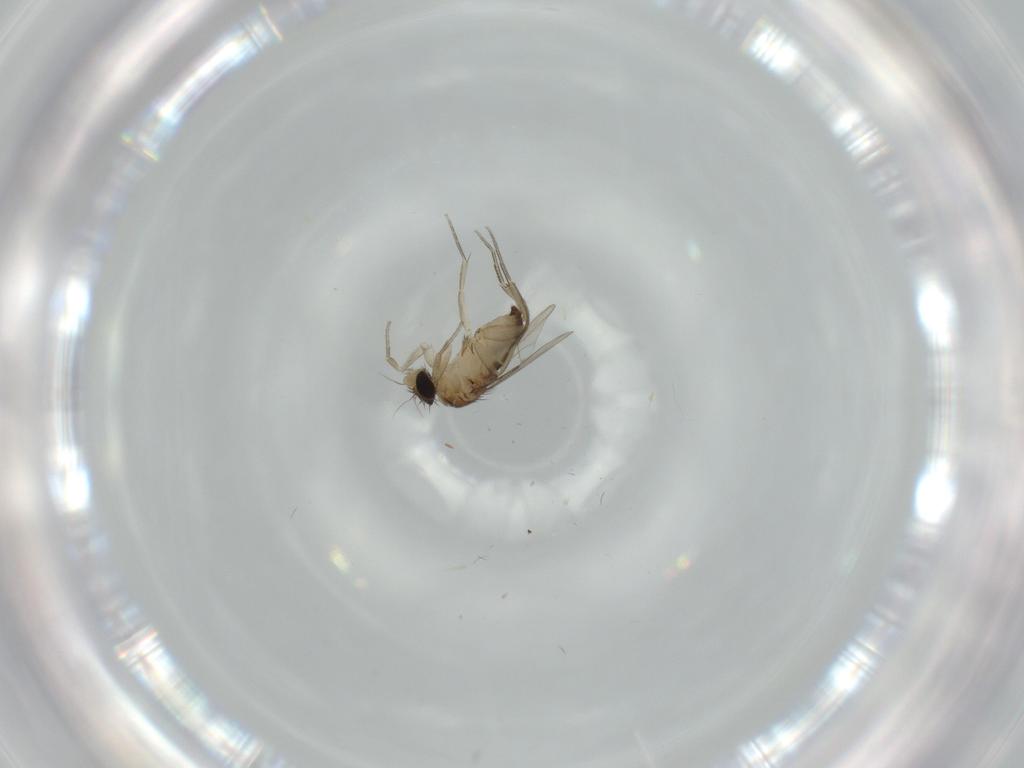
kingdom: Animalia
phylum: Arthropoda
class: Insecta
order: Diptera
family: Phoridae
